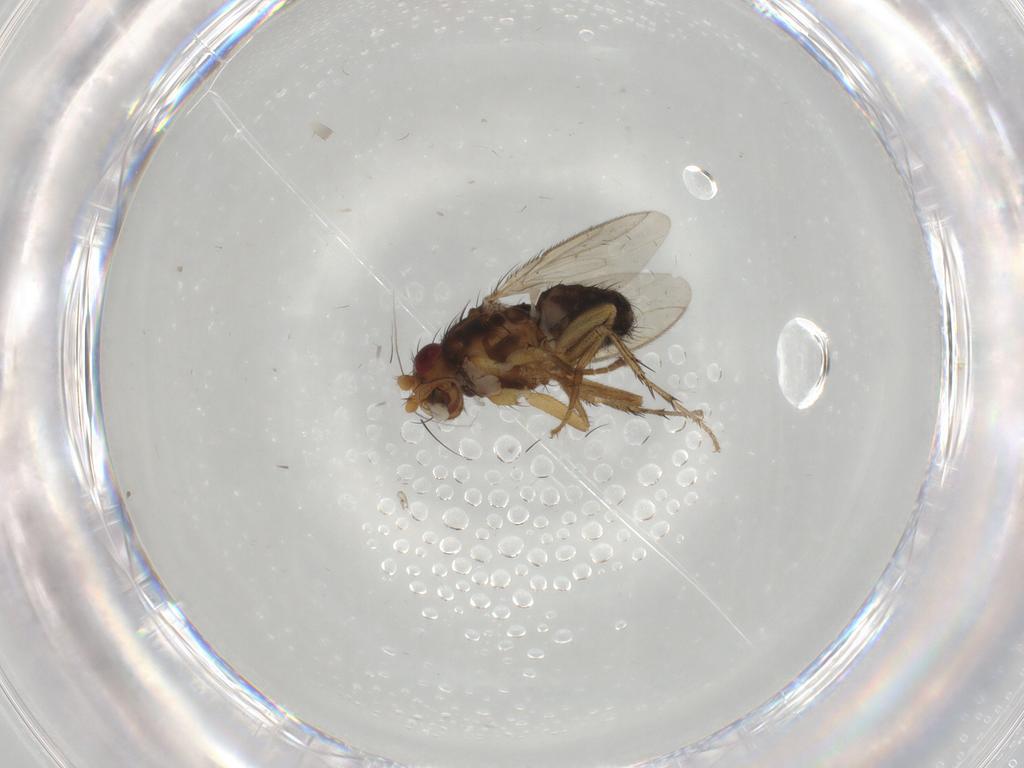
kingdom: Animalia
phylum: Arthropoda
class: Insecta
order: Diptera
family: Sphaeroceridae
